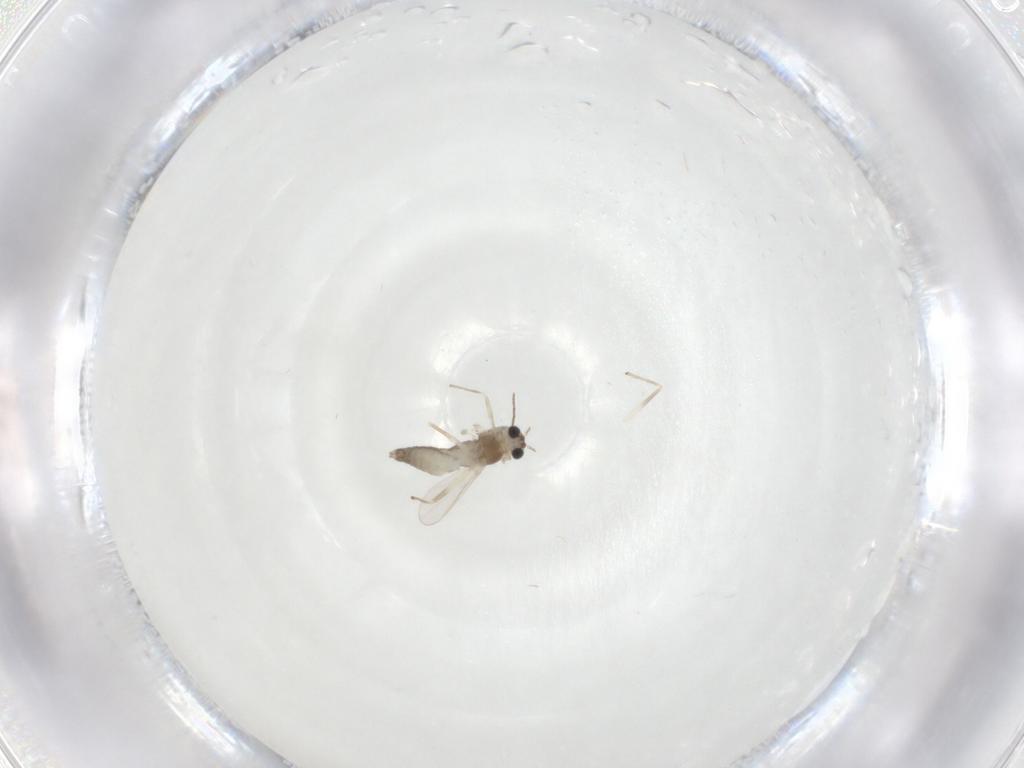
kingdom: Animalia
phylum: Arthropoda
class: Insecta
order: Diptera
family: Chironomidae
